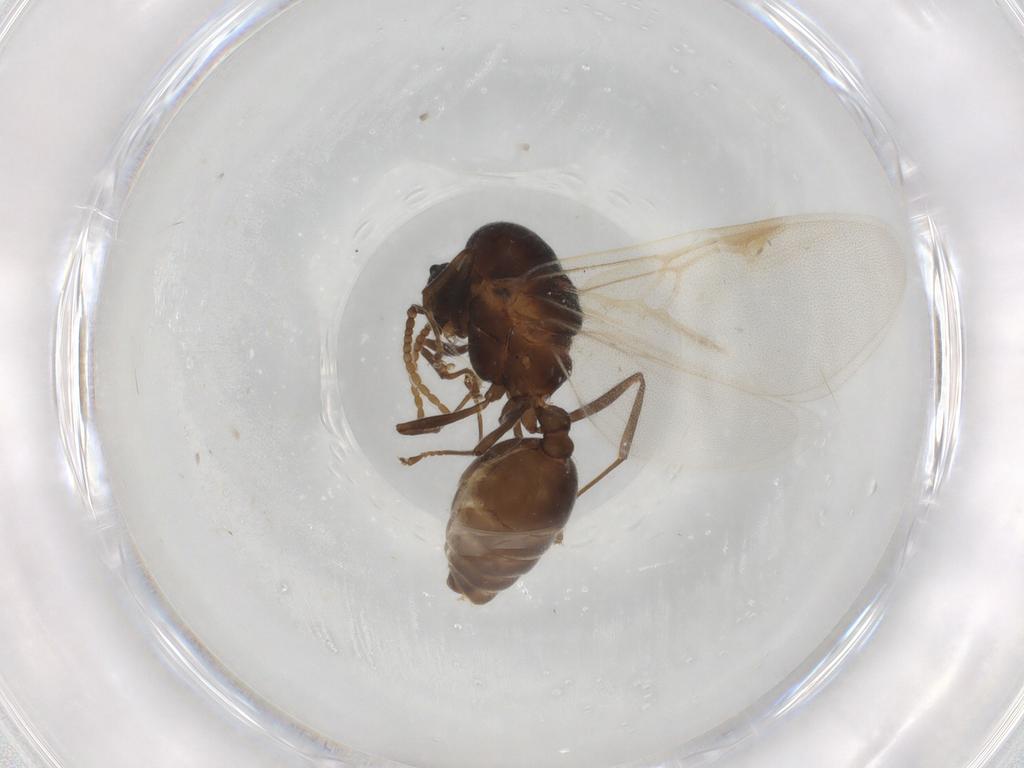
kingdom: Animalia
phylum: Arthropoda
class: Insecta
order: Hymenoptera
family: Formicidae
